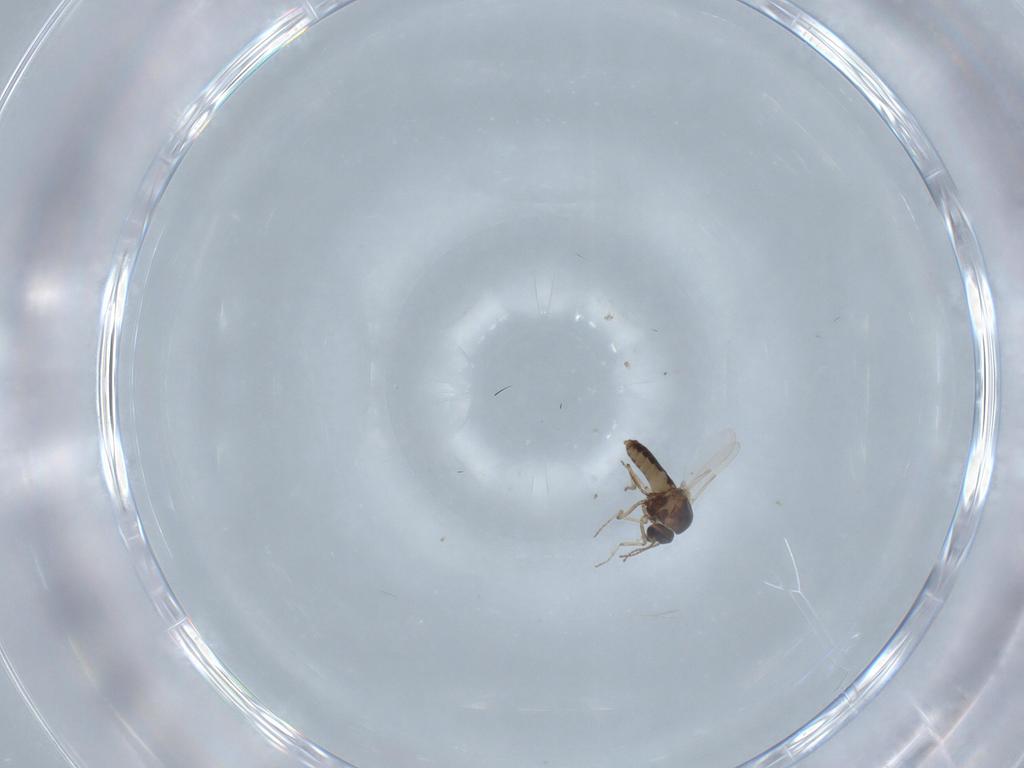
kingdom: Animalia
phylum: Arthropoda
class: Insecta
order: Diptera
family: Ceratopogonidae
